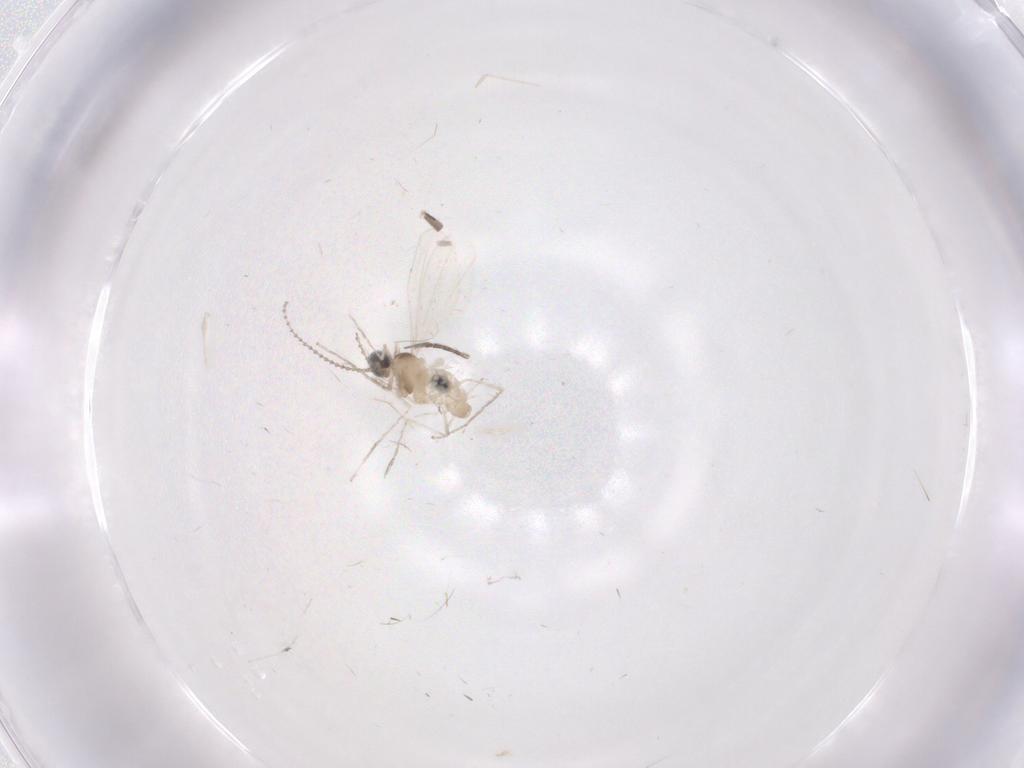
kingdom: Animalia
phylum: Arthropoda
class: Insecta
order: Diptera
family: Cecidomyiidae
